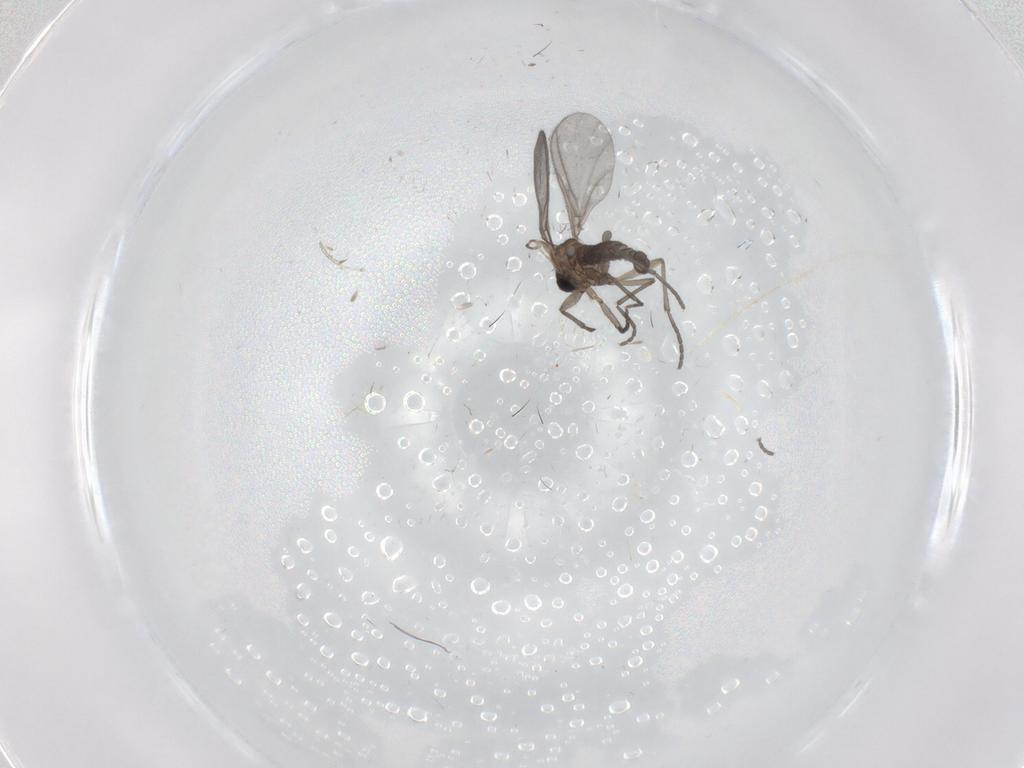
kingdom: Animalia
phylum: Arthropoda
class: Insecta
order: Diptera
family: Sciaridae
